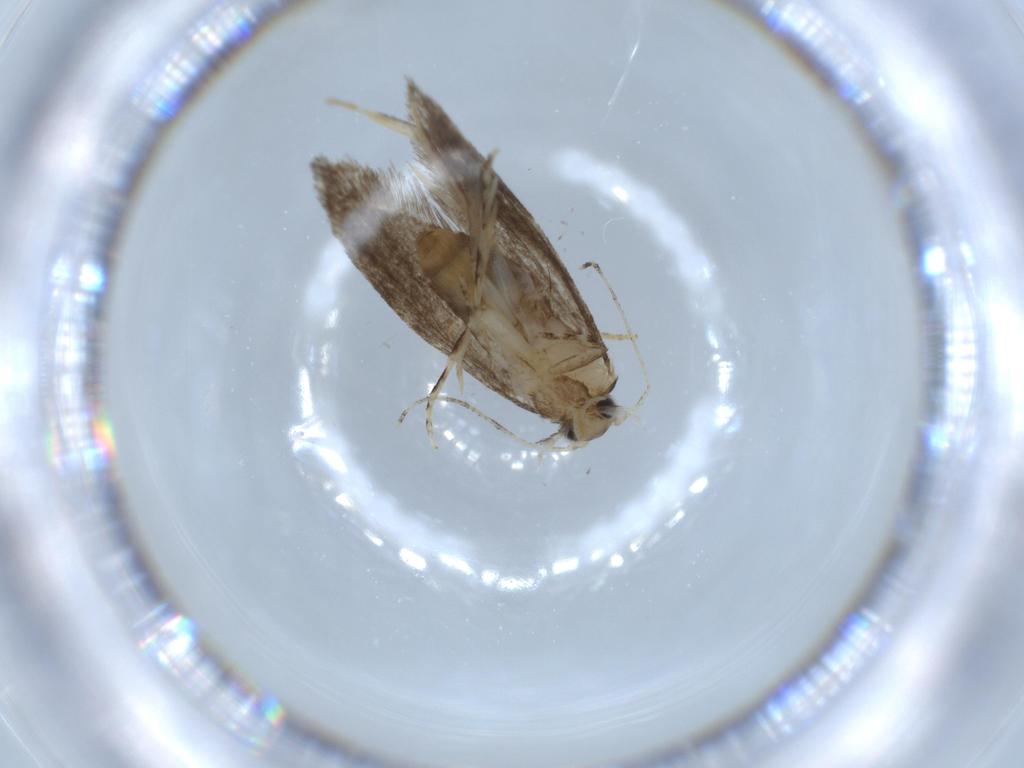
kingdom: Animalia
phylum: Arthropoda
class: Insecta
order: Lepidoptera
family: Tineidae
